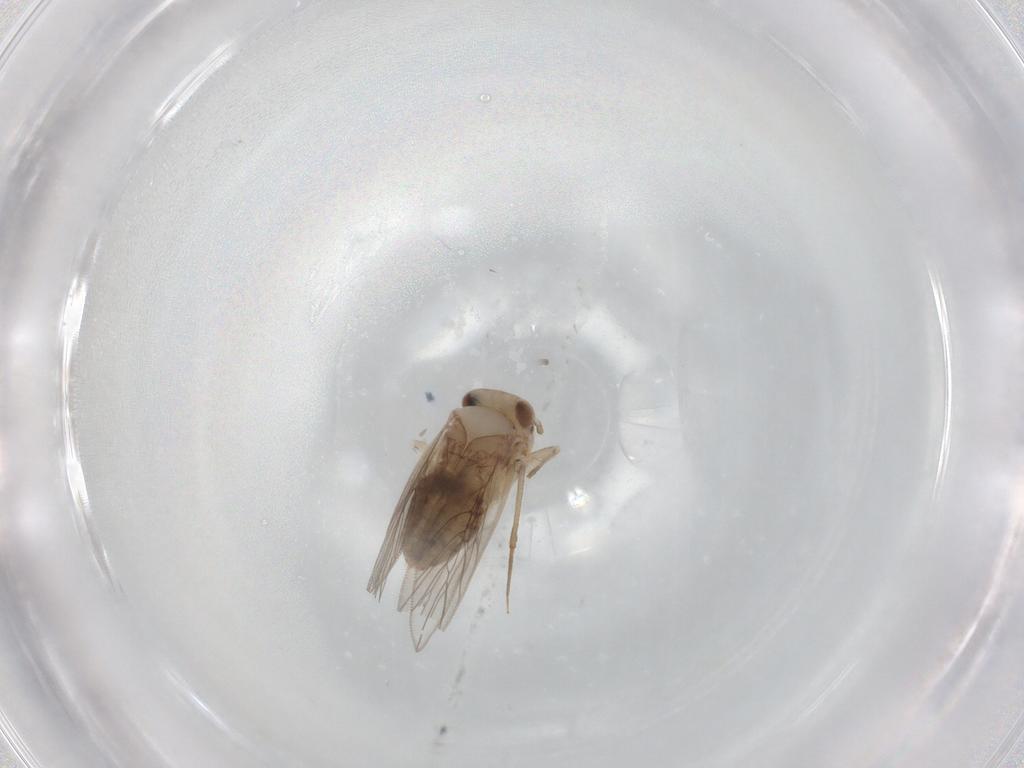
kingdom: Animalia
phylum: Arthropoda
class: Insecta
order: Psocodea
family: Lepidopsocidae
